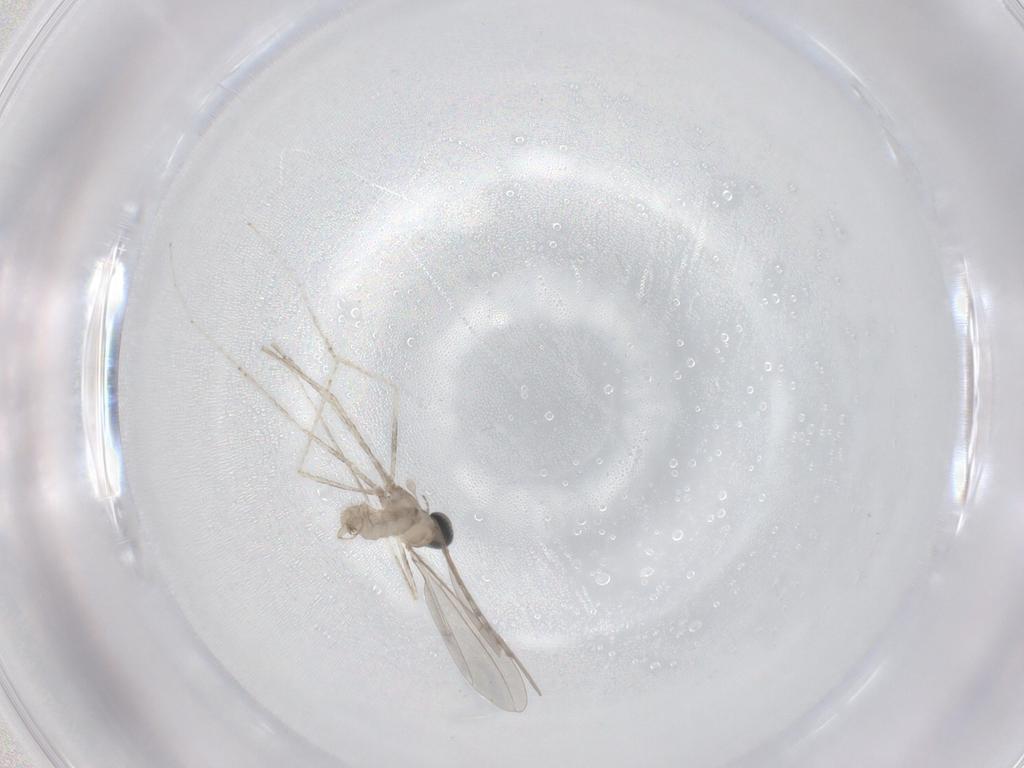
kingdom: Animalia
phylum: Arthropoda
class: Insecta
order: Diptera
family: Cecidomyiidae
